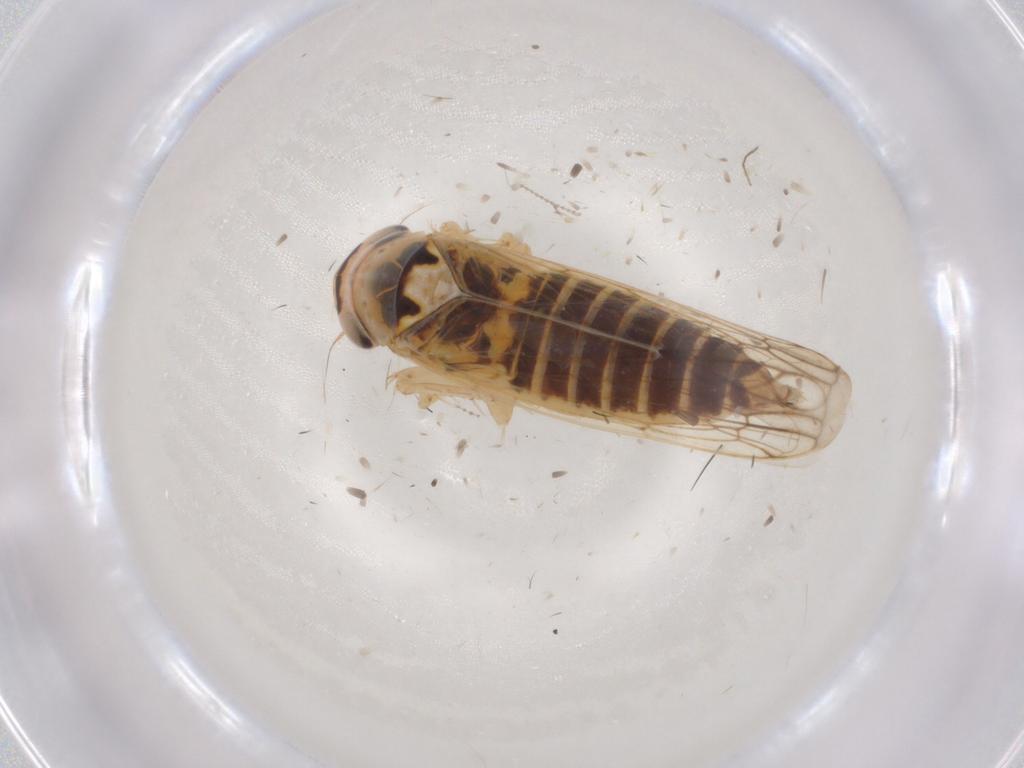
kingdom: Animalia
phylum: Arthropoda
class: Insecta
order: Hemiptera
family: Cicadellidae
